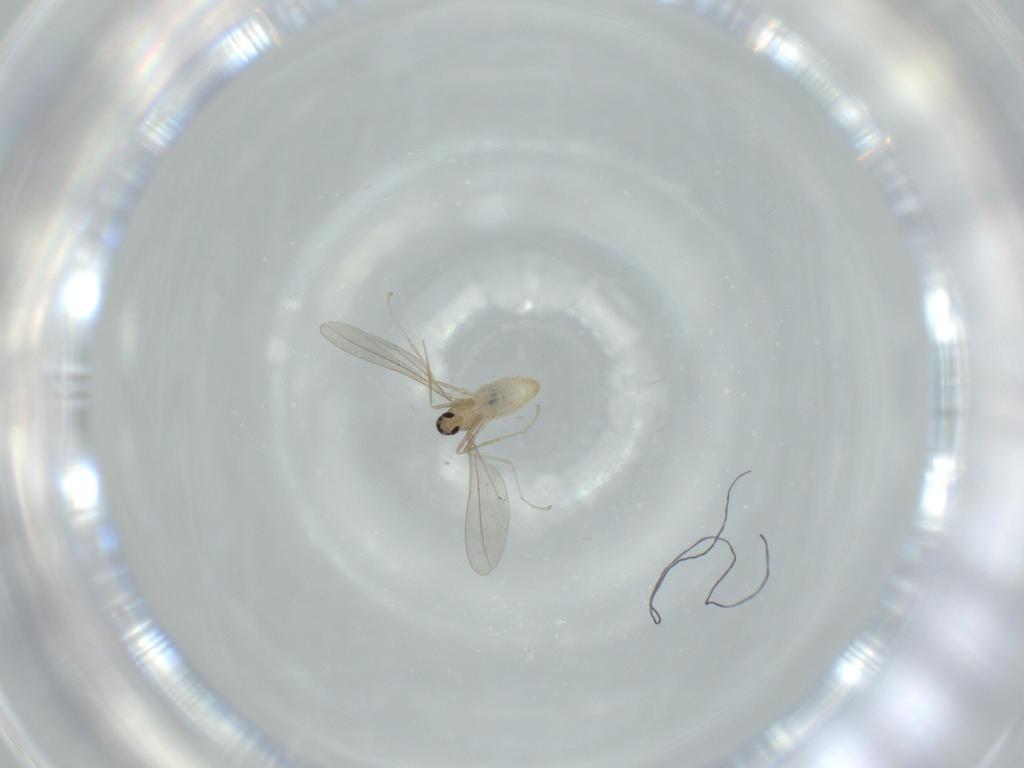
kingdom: Animalia
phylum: Arthropoda
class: Insecta
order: Diptera
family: Cecidomyiidae
